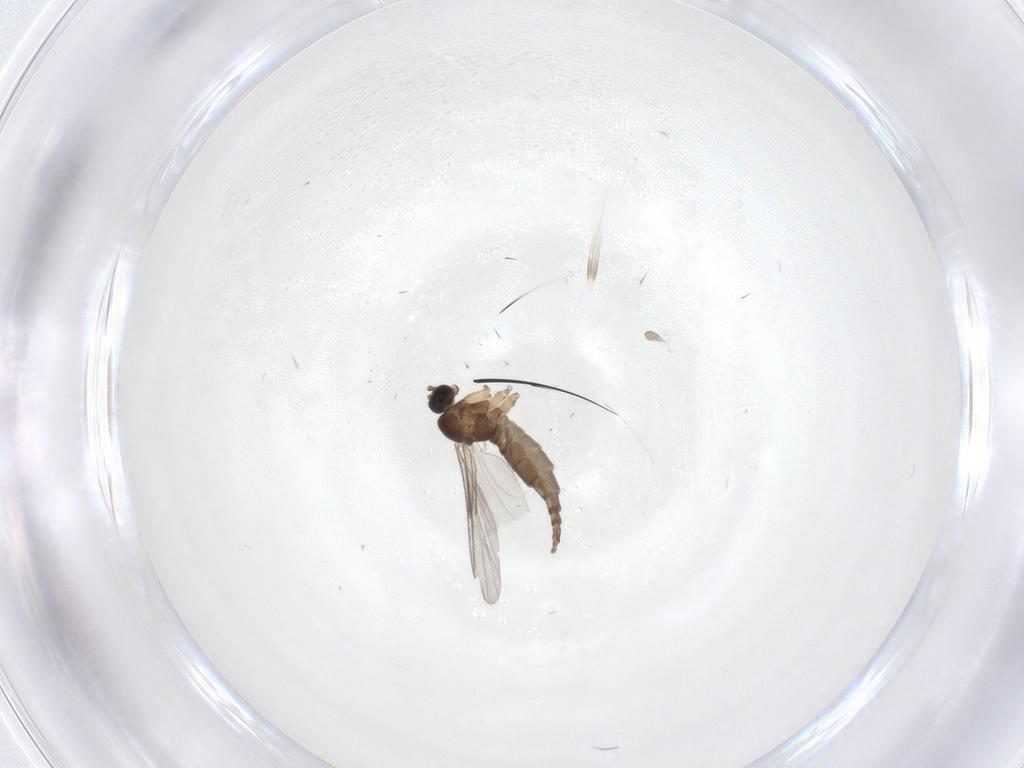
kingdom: Animalia
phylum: Arthropoda
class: Insecta
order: Diptera
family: Sciaridae
